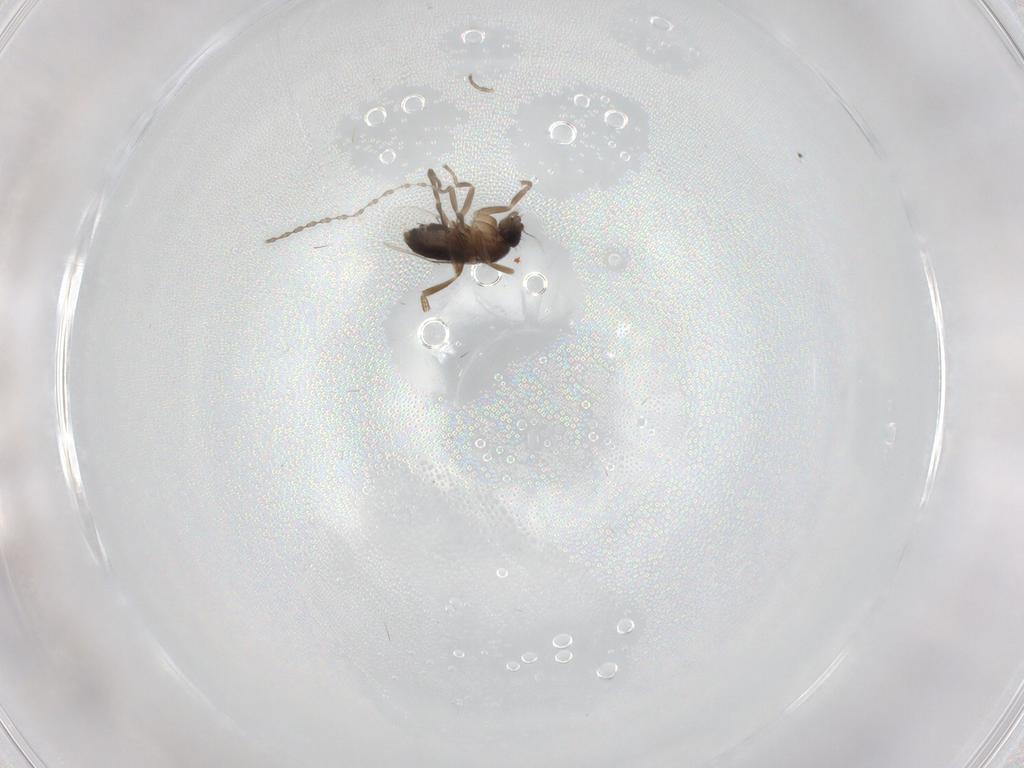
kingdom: Animalia
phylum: Arthropoda
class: Insecta
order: Diptera
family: Phoridae
